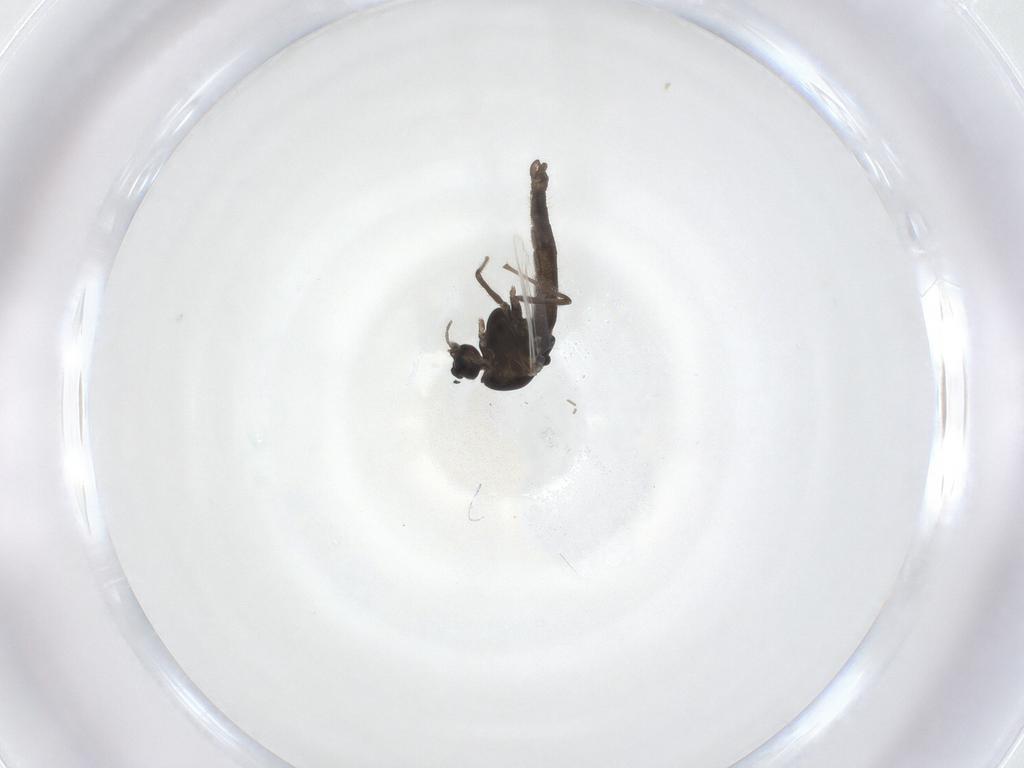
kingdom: Animalia
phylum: Arthropoda
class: Insecta
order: Diptera
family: Chironomidae
